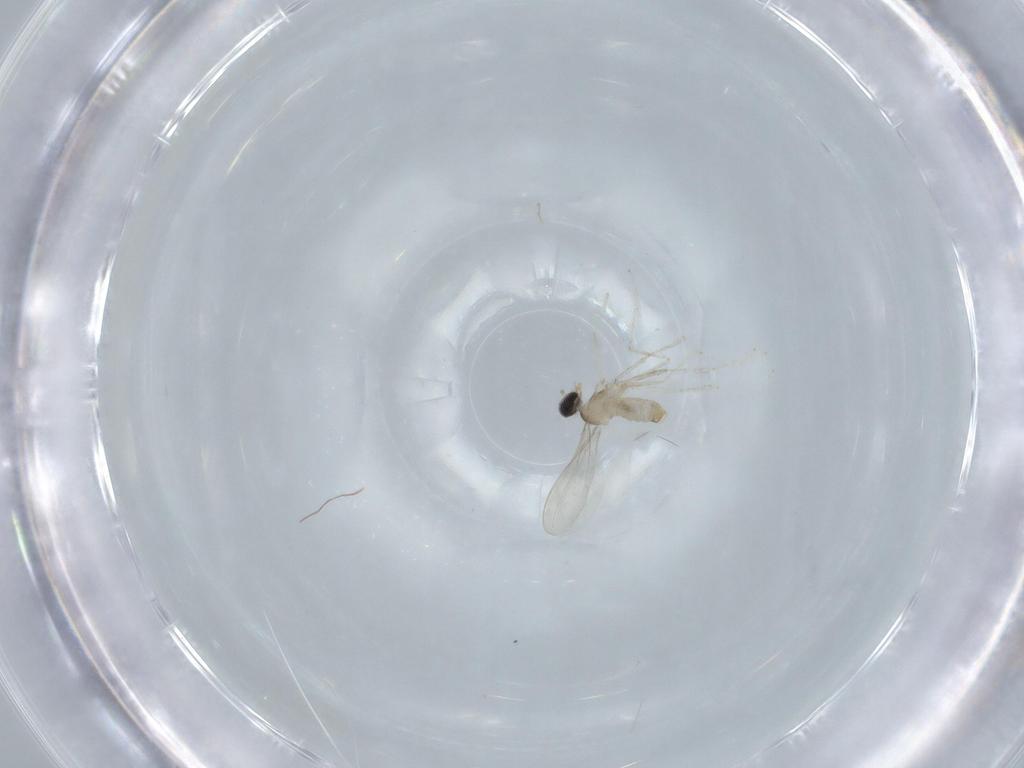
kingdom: Animalia
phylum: Arthropoda
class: Insecta
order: Diptera
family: Cecidomyiidae
